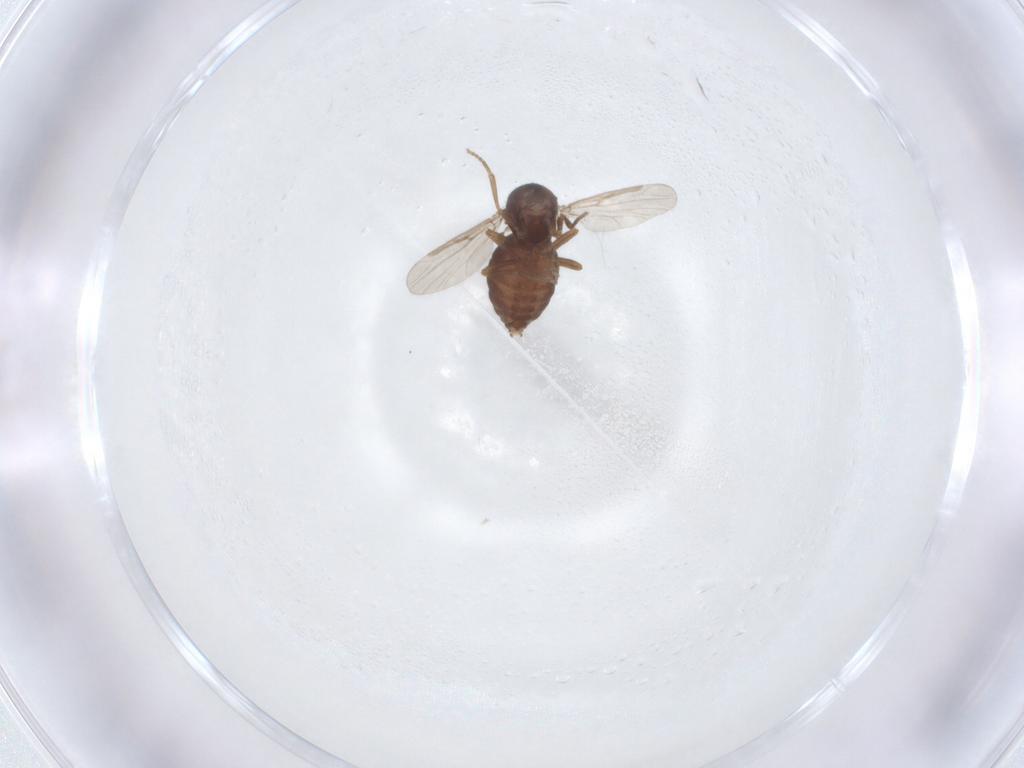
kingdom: Animalia
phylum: Arthropoda
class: Insecta
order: Diptera
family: Ceratopogonidae
